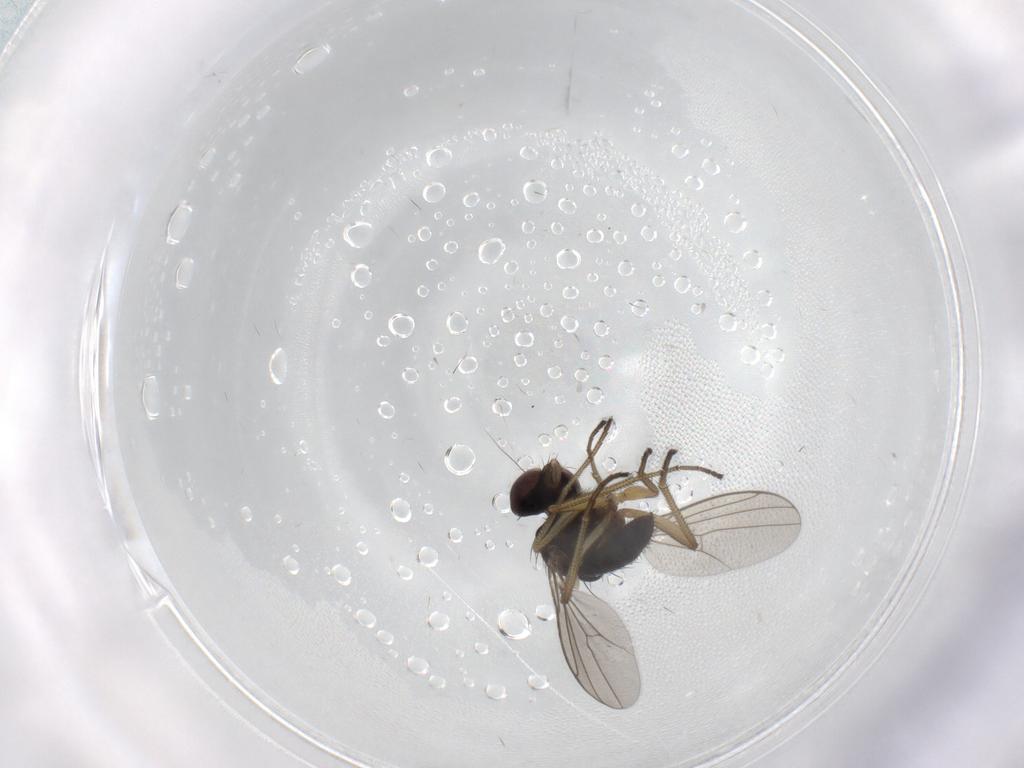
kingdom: Animalia
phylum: Arthropoda
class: Insecta
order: Diptera
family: Dolichopodidae
